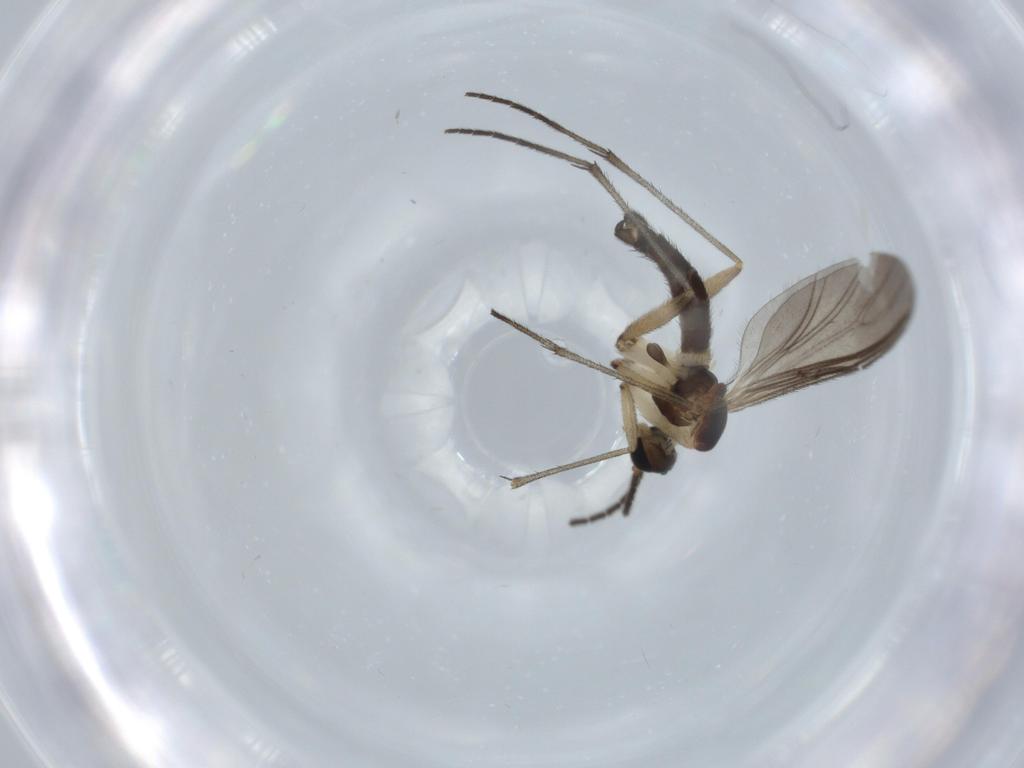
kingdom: Animalia
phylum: Arthropoda
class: Insecta
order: Diptera
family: Sciaridae
